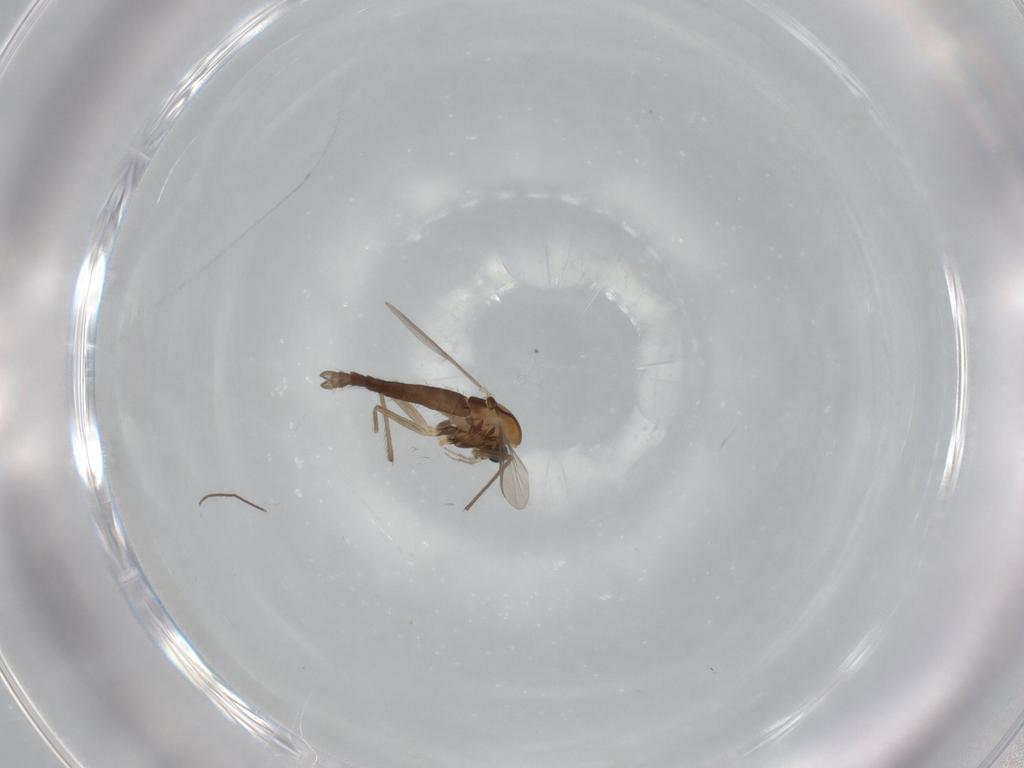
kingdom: Animalia
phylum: Arthropoda
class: Insecta
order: Diptera
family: Chironomidae
